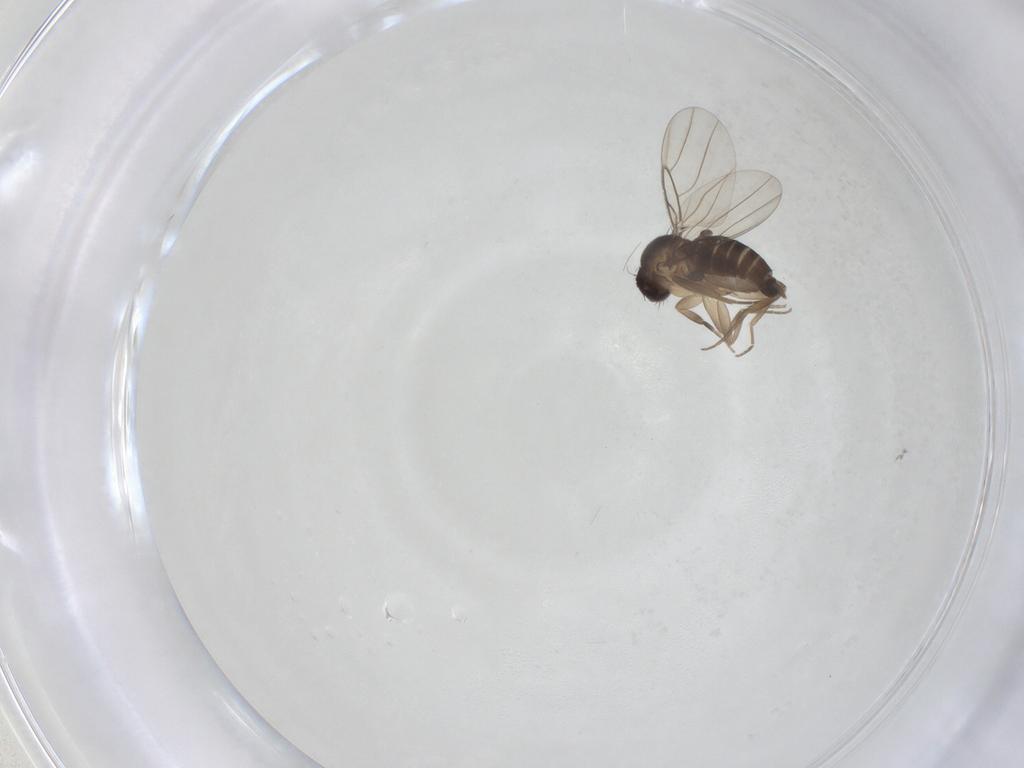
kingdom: Animalia
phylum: Arthropoda
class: Insecta
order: Diptera
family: Phoridae
